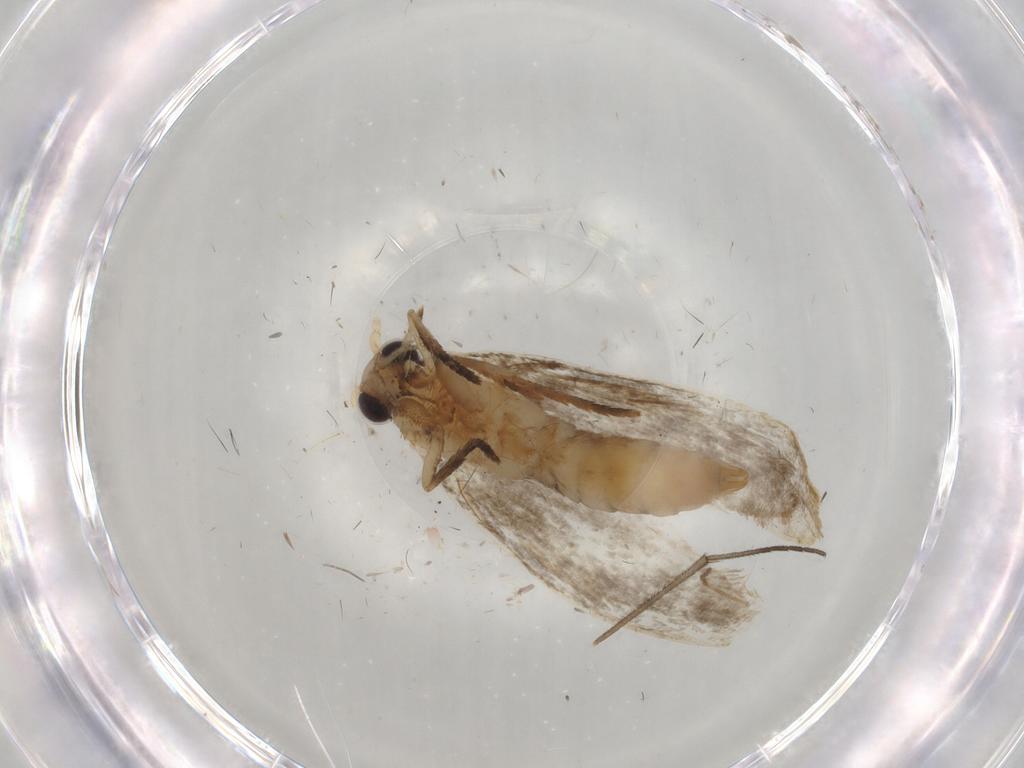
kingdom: Animalia
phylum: Arthropoda
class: Insecta
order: Lepidoptera
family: Tineidae
